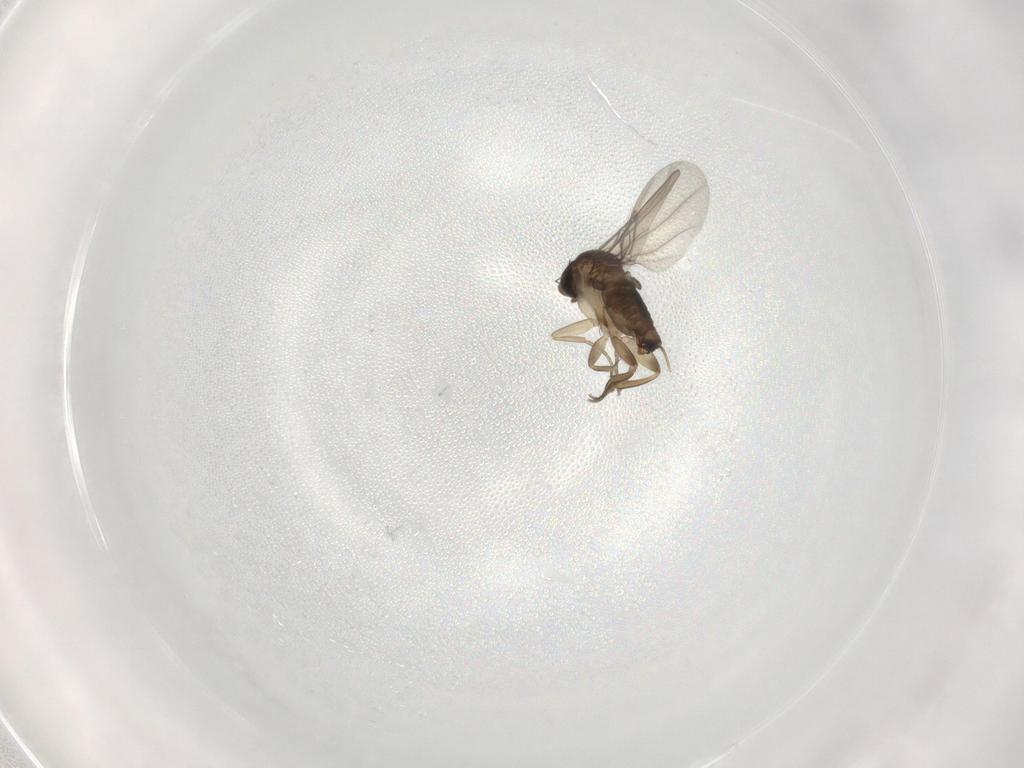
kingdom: Animalia
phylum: Arthropoda
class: Insecta
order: Diptera
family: Phoridae
